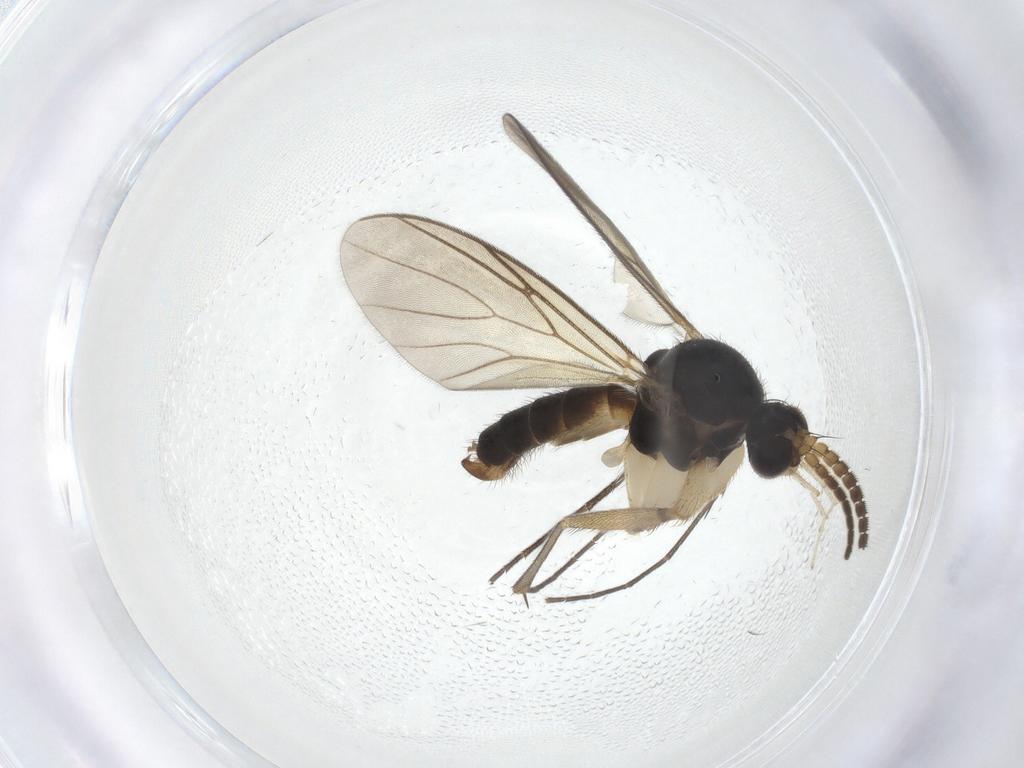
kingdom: Animalia
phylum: Arthropoda
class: Insecta
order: Diptera
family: Mycetophilidae
